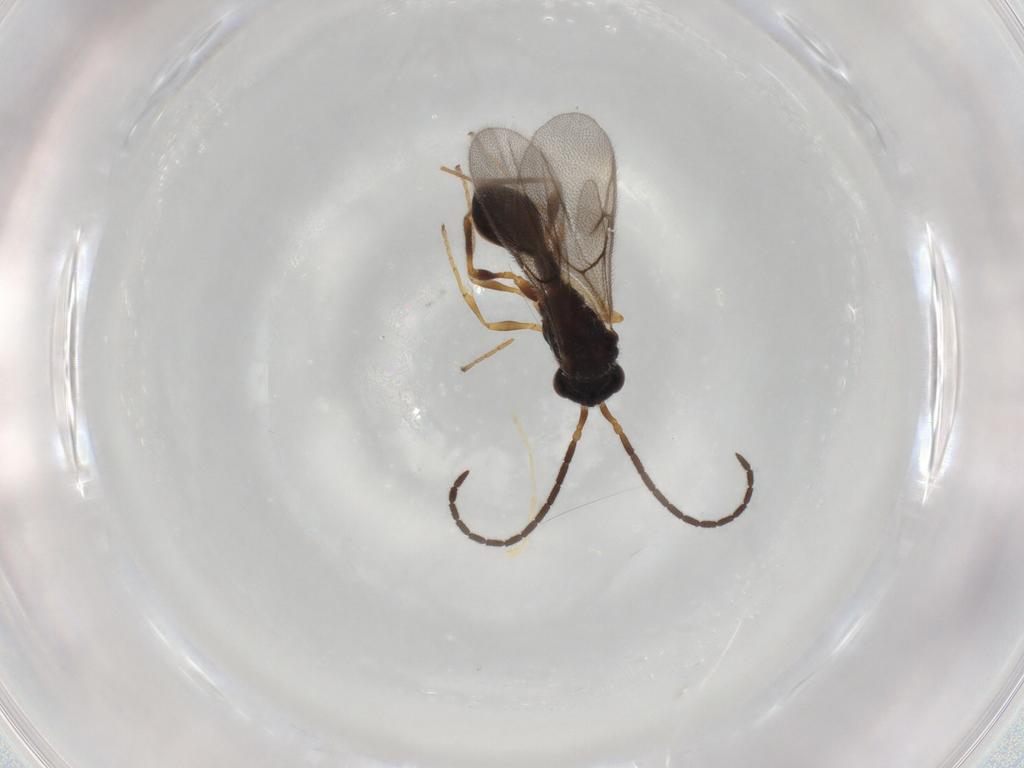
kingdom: Animalia
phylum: Arthropoda
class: Insecta
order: Hymenoptera
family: Diapriidae
